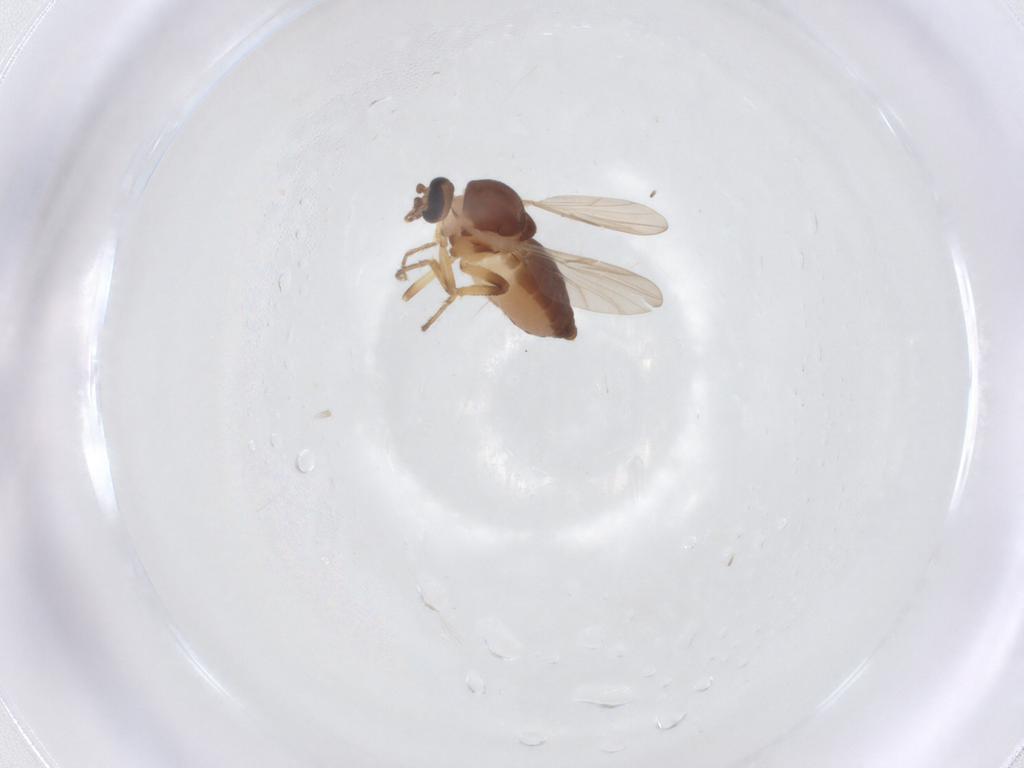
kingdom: Animalia
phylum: Arthropoda
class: Insecta
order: Diptera
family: Ceratopogonidae
